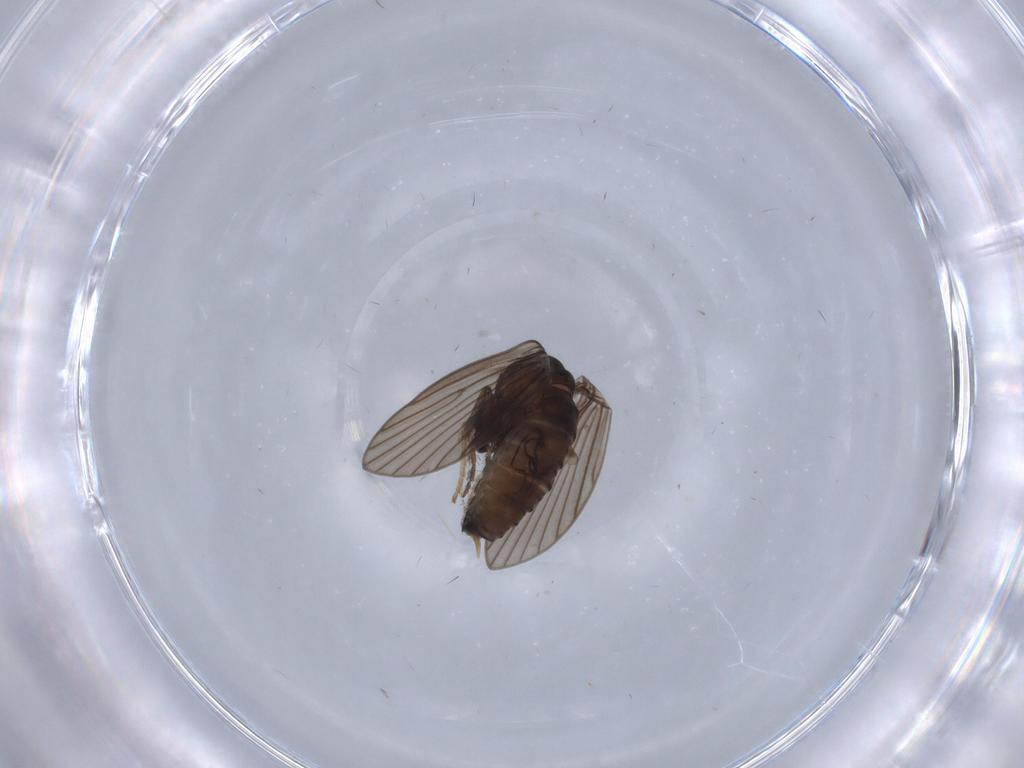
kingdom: Animalia
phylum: Arthropoda
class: Insecta
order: Diptera
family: Psychodidae
